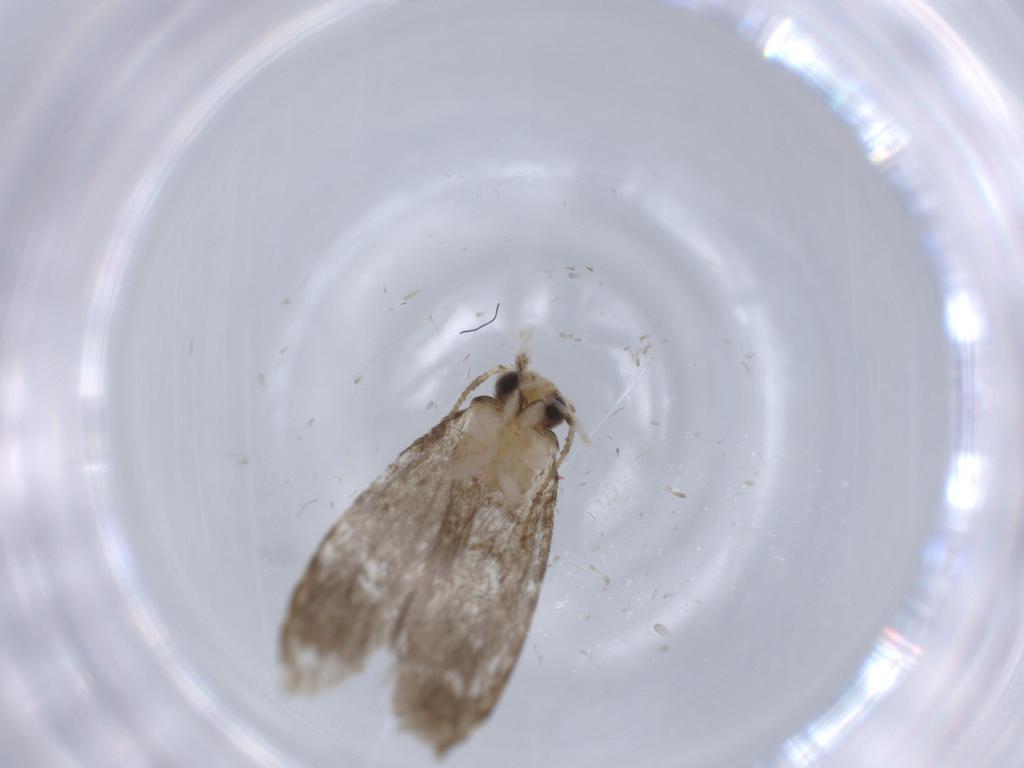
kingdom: Animalia
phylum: Arthropoda
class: Insecta
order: Lepidoptera
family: Tineidae
